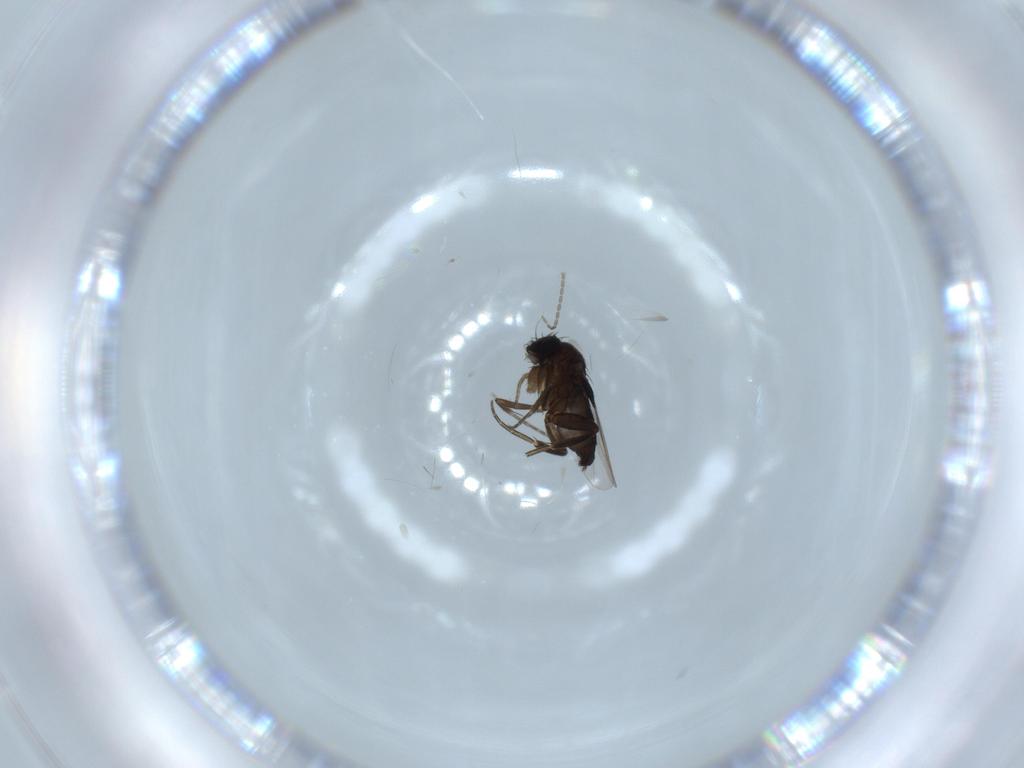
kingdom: Animalia
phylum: Arthropoda
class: Insecta
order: Diptera
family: Phoridae
